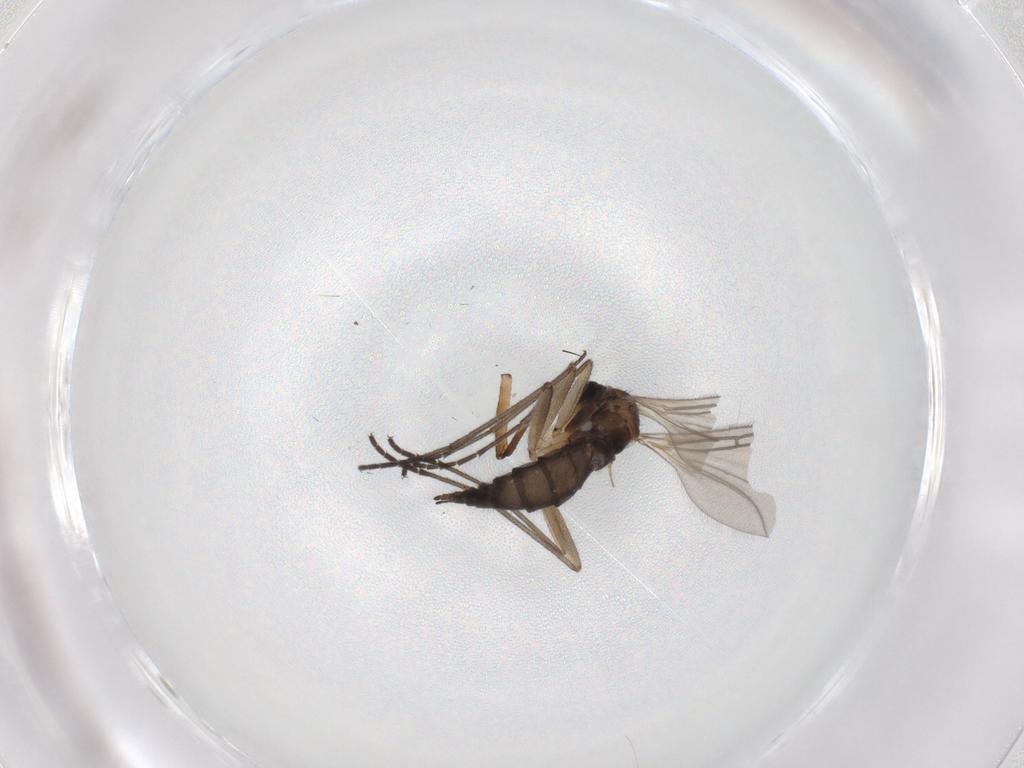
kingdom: Animalia
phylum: Arthropoda
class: Insecta
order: Diptera
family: Sciaridae
